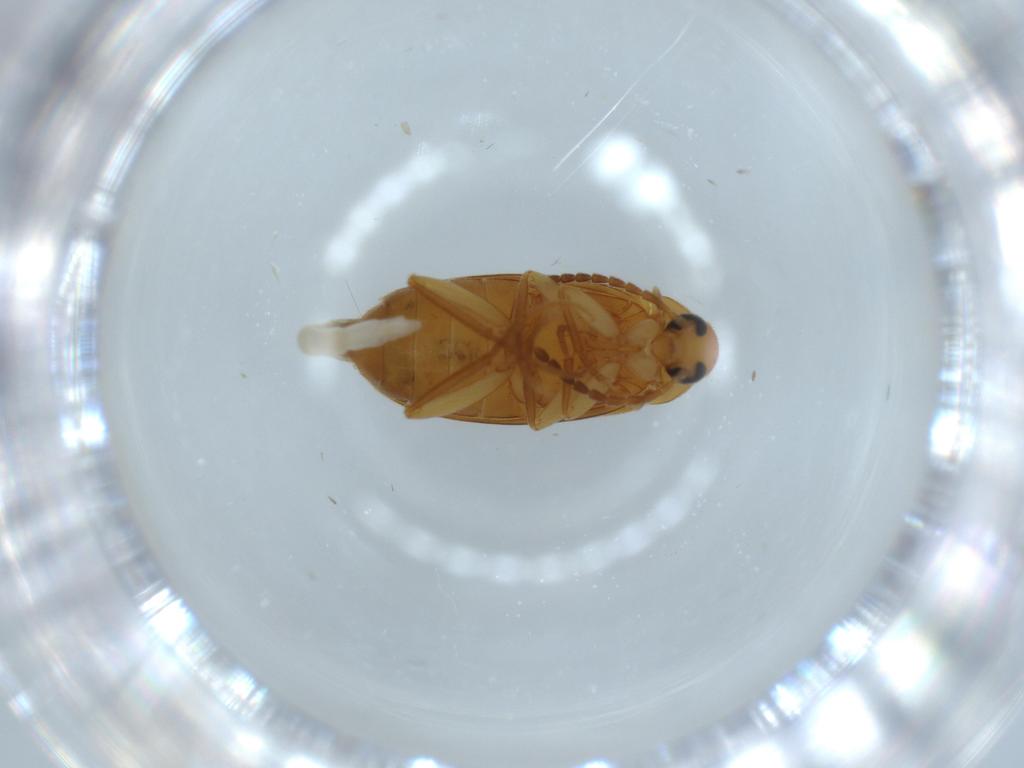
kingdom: Animalia
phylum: Arthropoda
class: Insecta
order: Coleoptera
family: Scraptiidae
